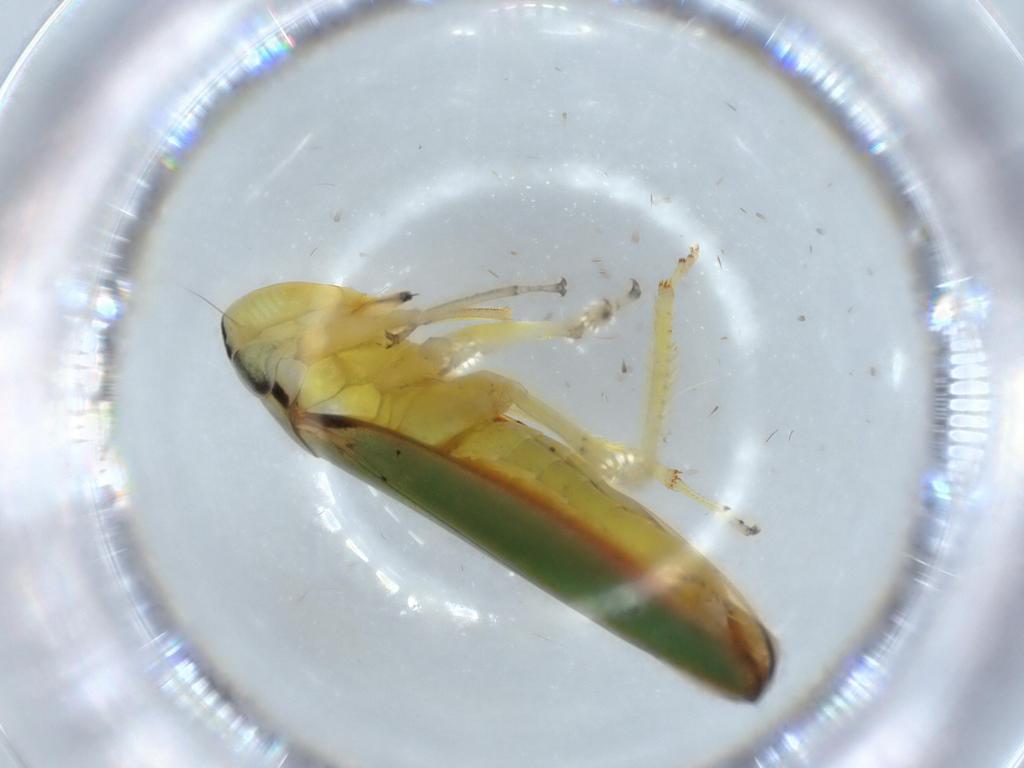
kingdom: Animalia
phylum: Arthropoda
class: Insecta
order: Hemiptera
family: Cicadellidae
